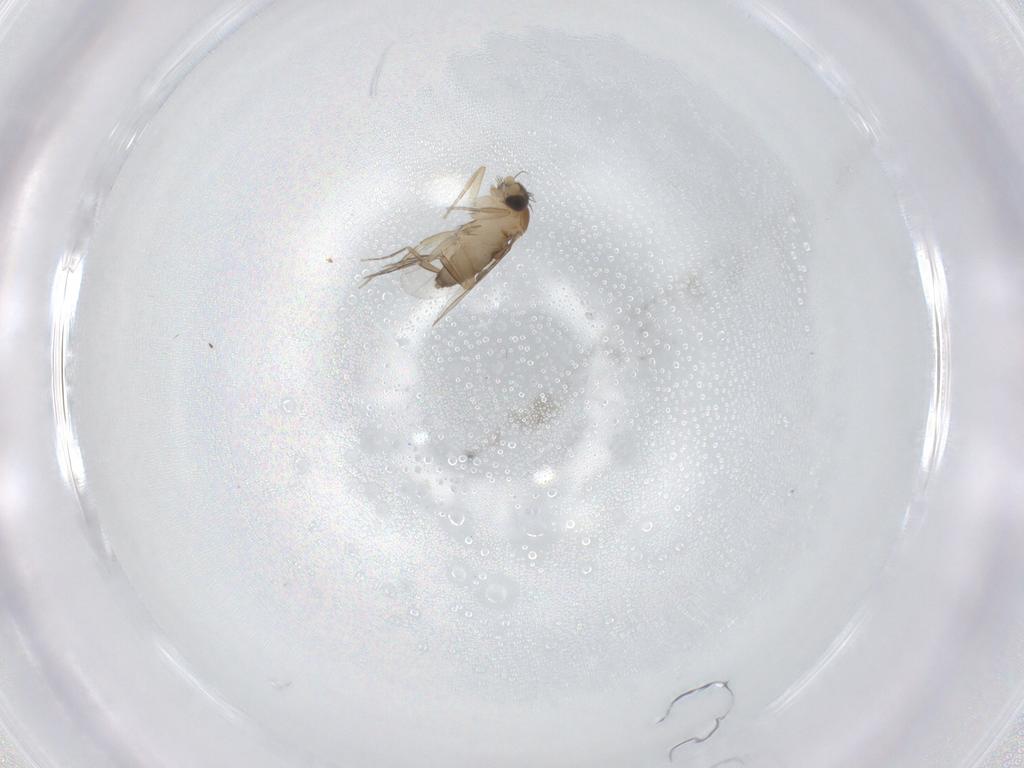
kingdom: Animalia
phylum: Arthropoda
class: Insecta
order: Diptera
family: Phoridae
